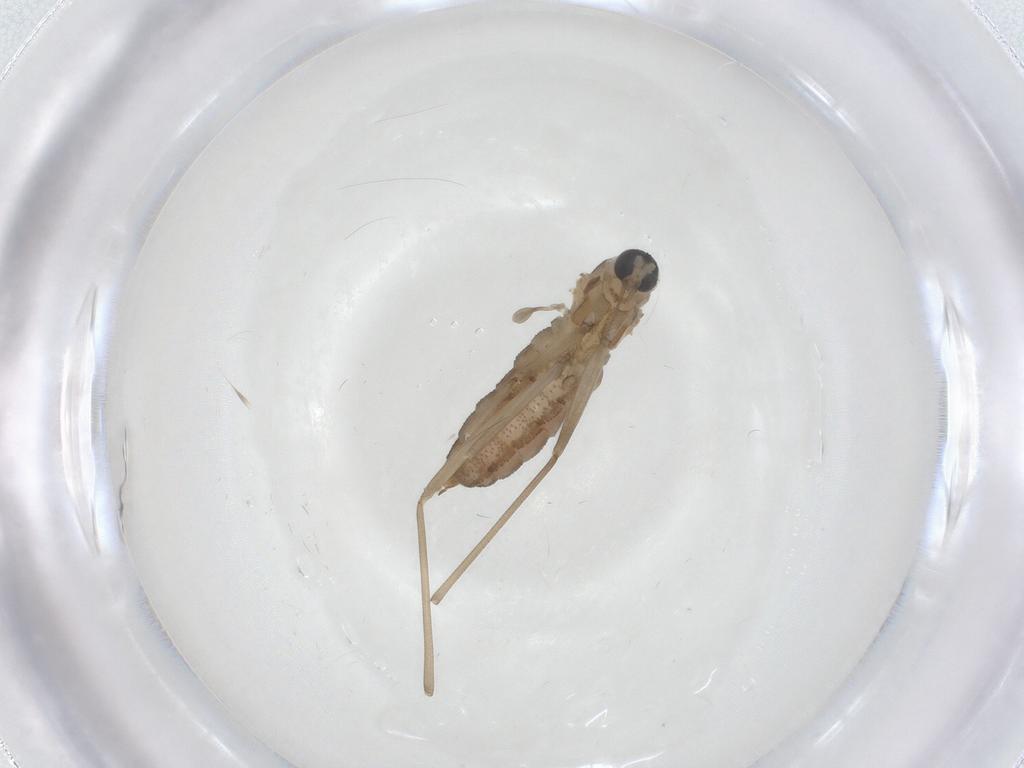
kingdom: Animalia
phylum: Arthropoda
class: Insecta
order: Diptera
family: Cecidomyiidae
